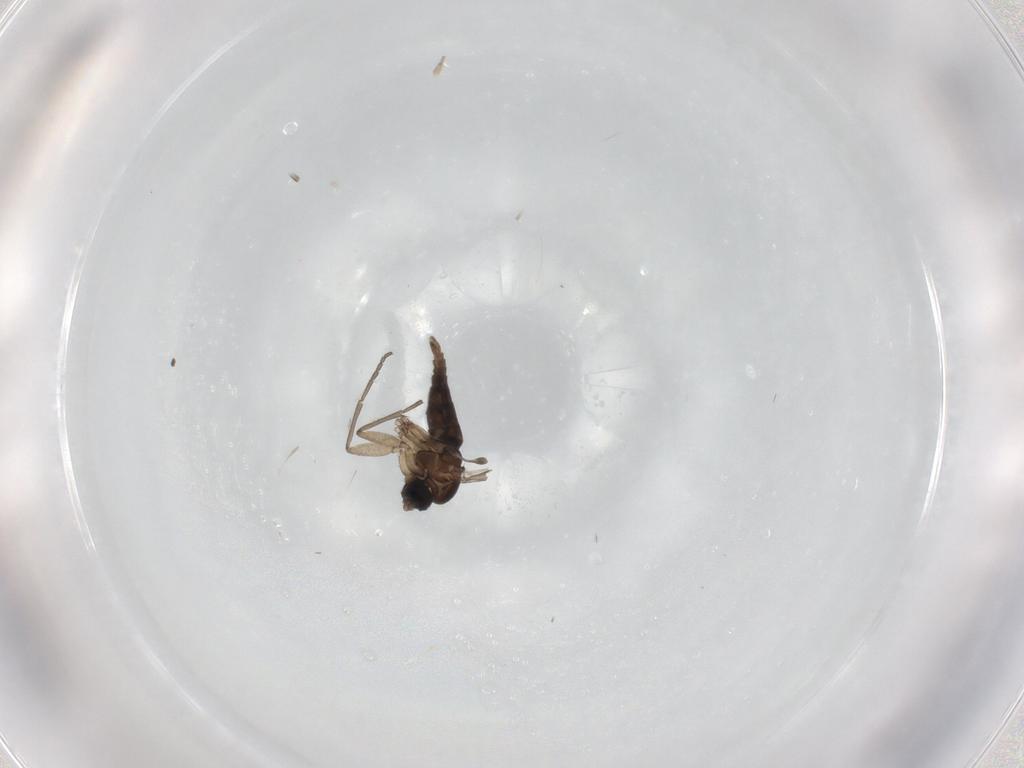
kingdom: Animalia
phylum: Arthropoda
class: Insecta
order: Diptera
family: Sciaridae
